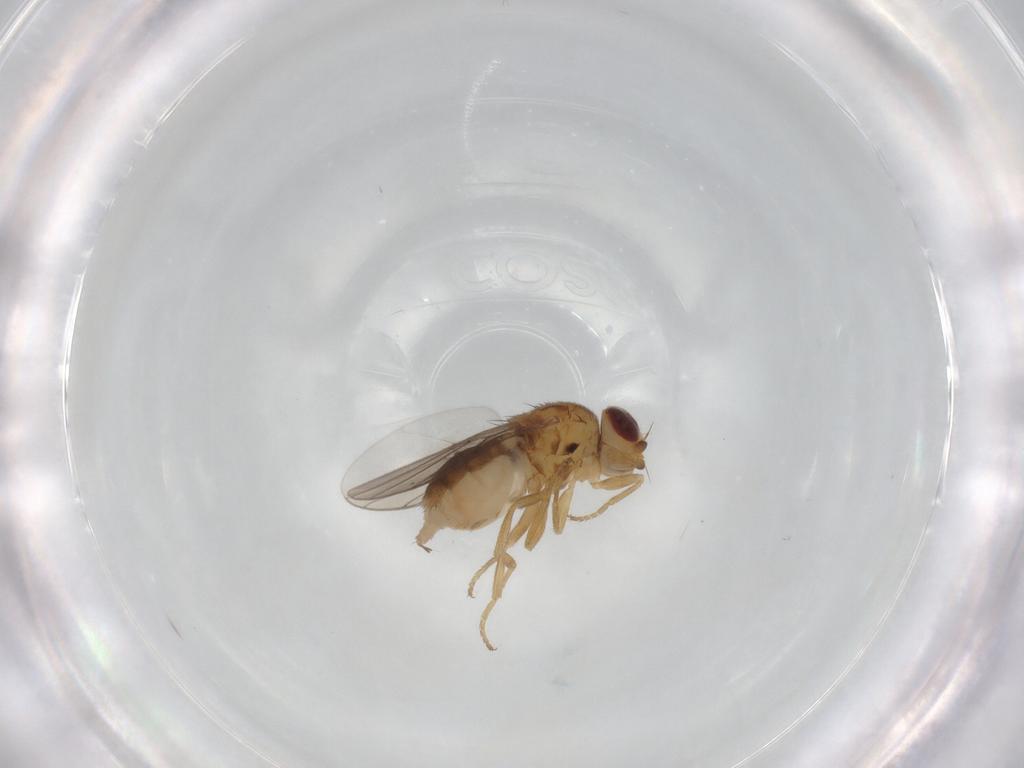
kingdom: Animalia
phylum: Arthropoda
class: Insecta
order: Diptera
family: Chloropidae
